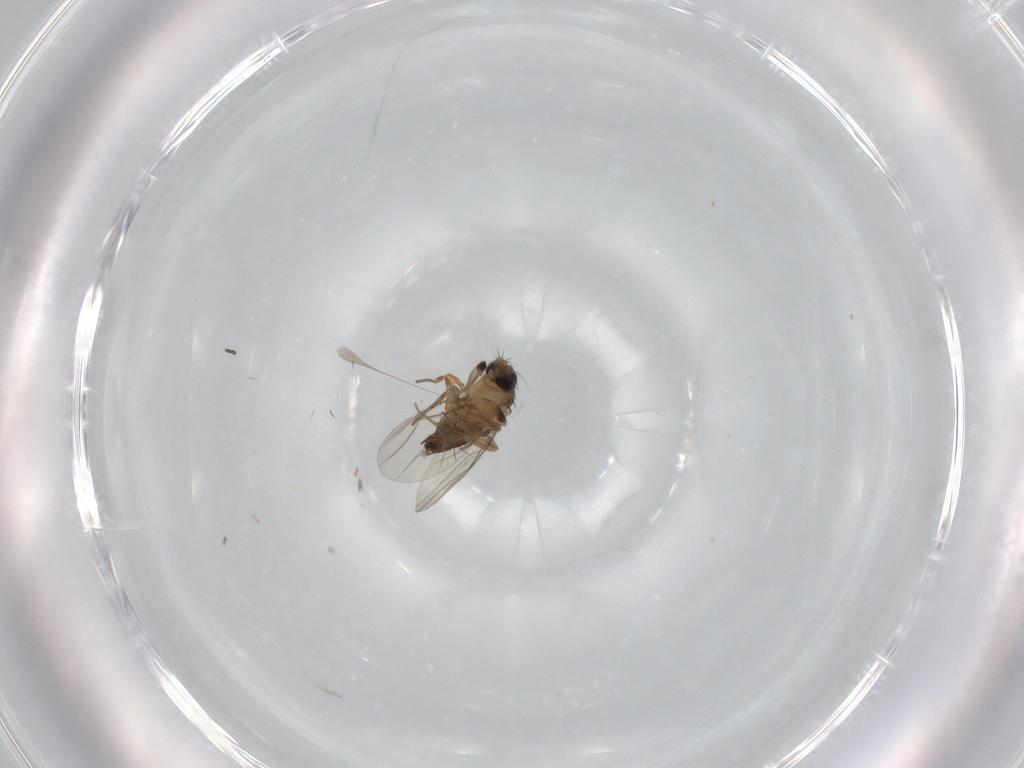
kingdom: Animalia
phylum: Arthropoda
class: Insecta
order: Diptera
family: Phoridae
